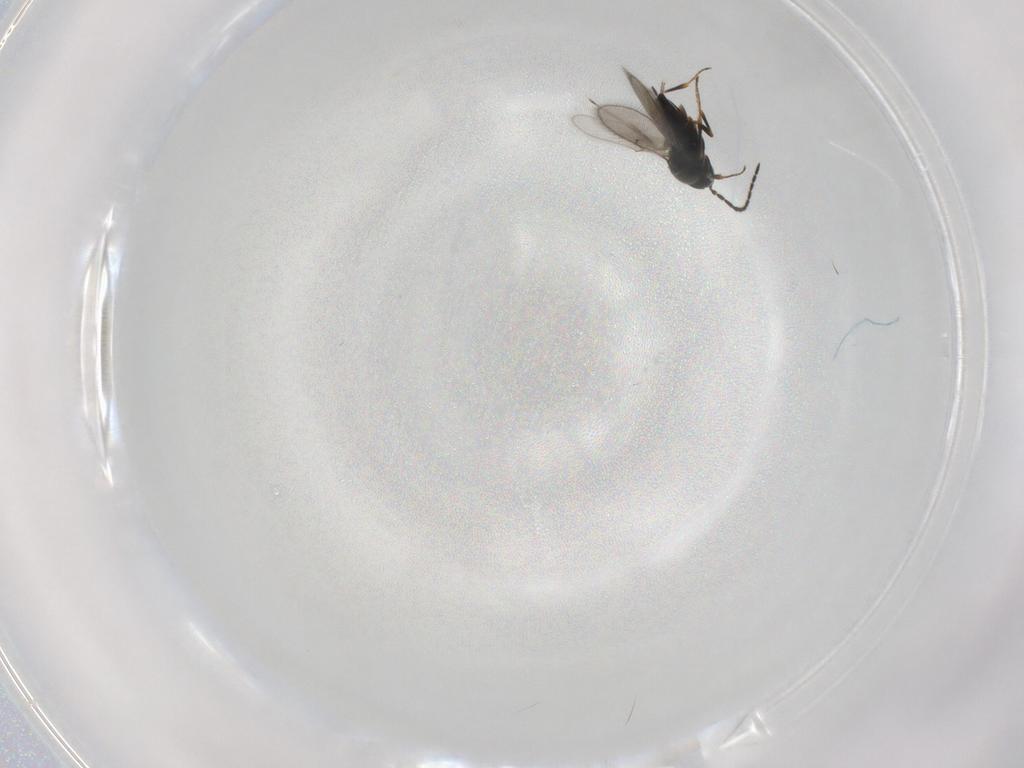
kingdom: Animalia
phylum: Arthropoda
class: Insecta
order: Hymenoptera
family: Scelionidae
